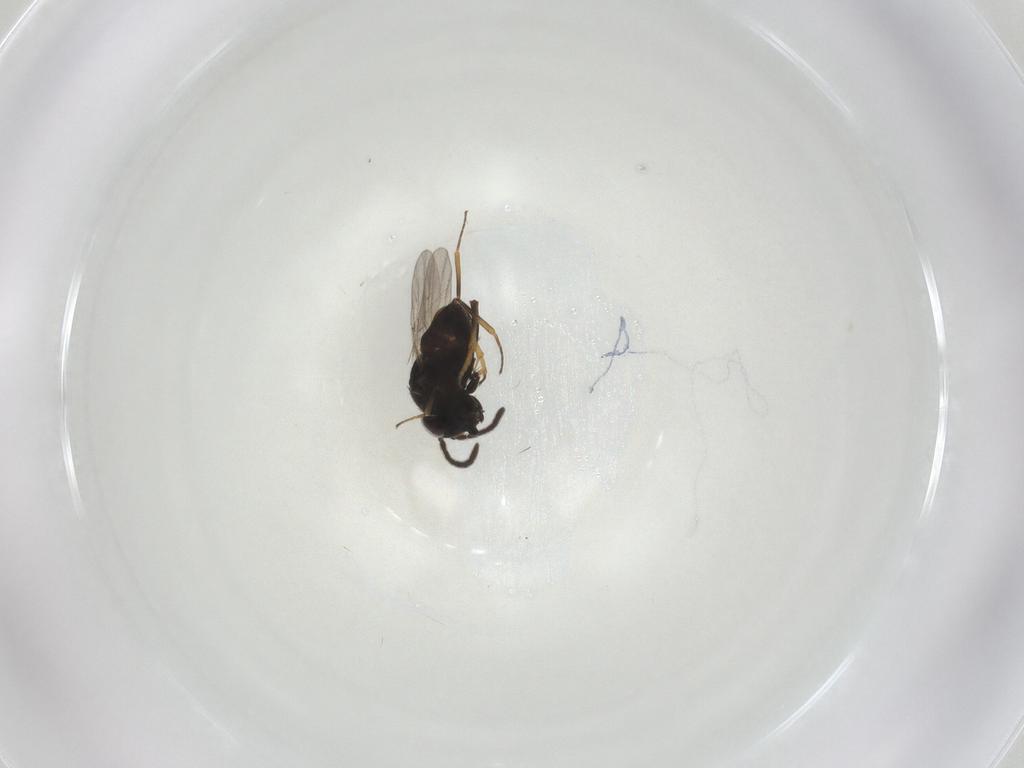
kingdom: Animalia
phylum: Arthropoda
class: Insecta
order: Hymenoptera
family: Encyrtidae
